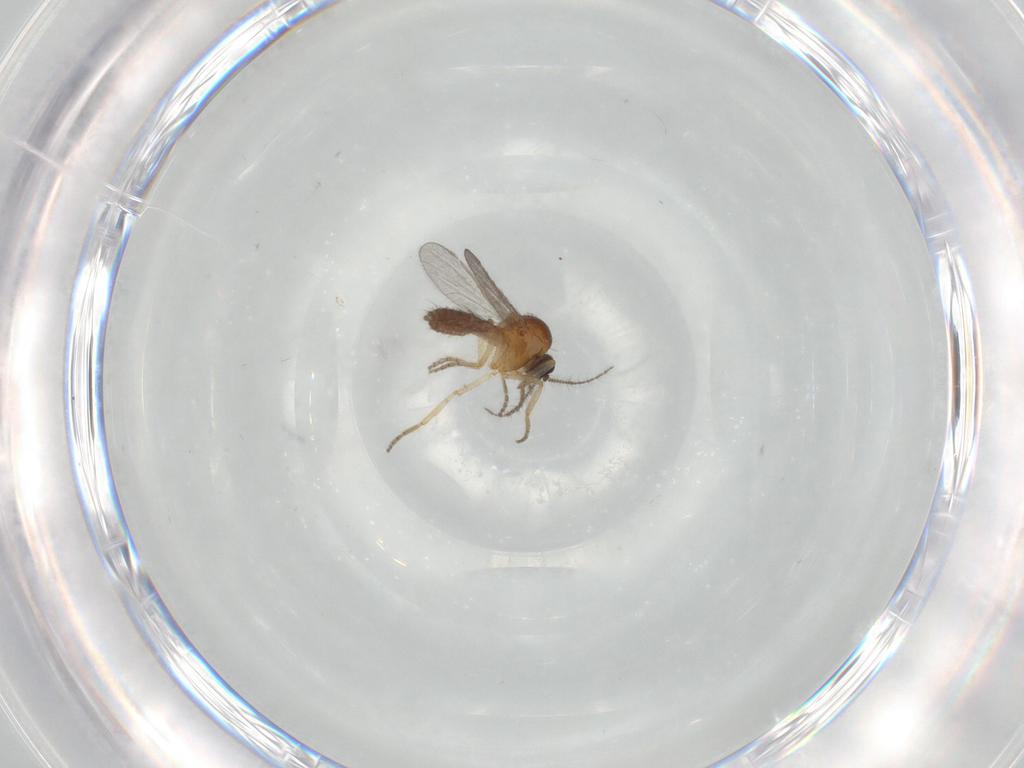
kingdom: Animalia
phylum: Arthropoda
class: Insecta
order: Diptera
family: Ceratopogonidae
